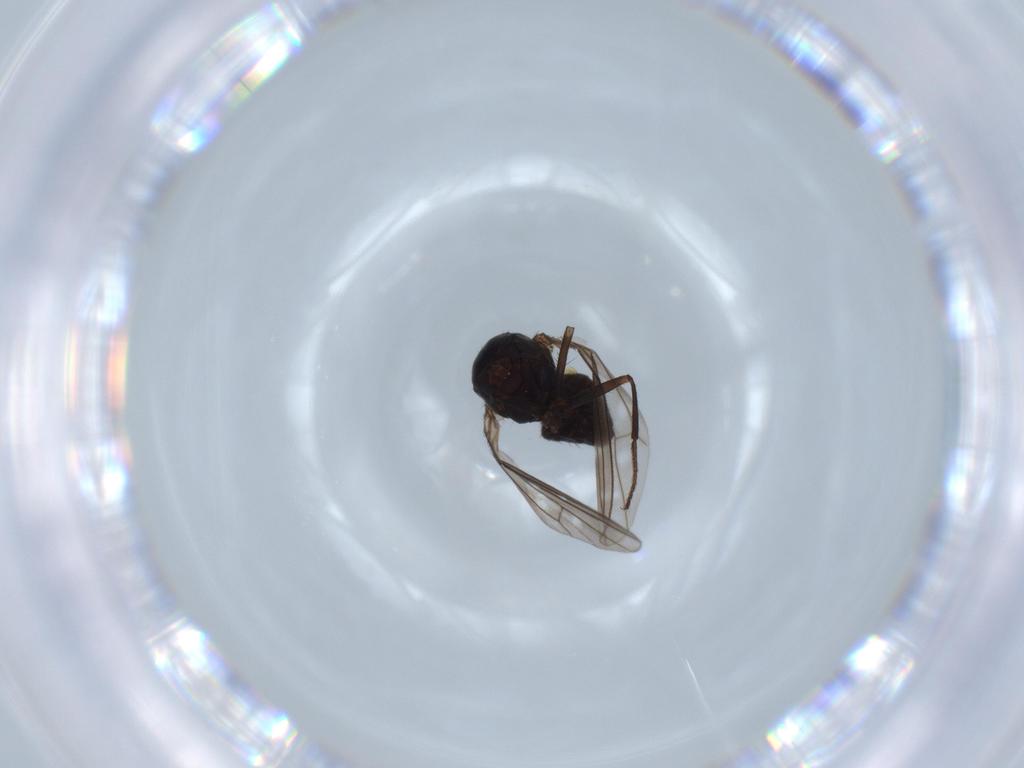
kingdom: Animalia
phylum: Arthropoda
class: Insecta
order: Diptera
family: Ephydridae
